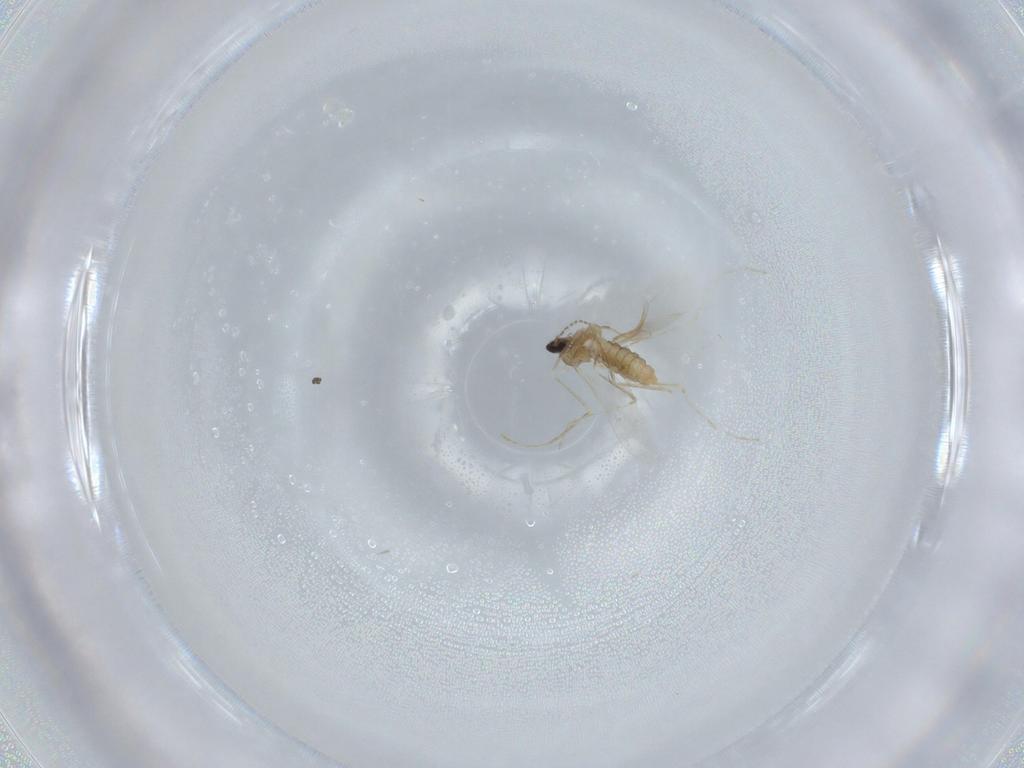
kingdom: Animalia
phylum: Arthropoda
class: Insecta
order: Diptera
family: Cecidomyiidae
